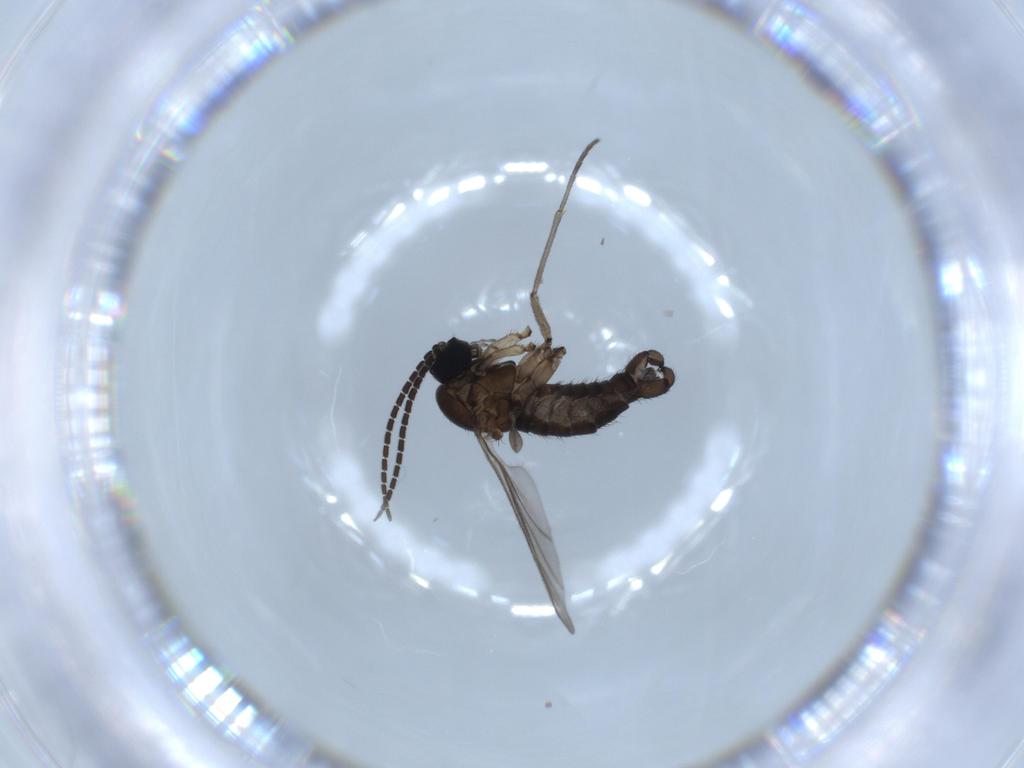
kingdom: Animalia
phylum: Arthropoda
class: Insecta
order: Diptera
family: Sciaridae
